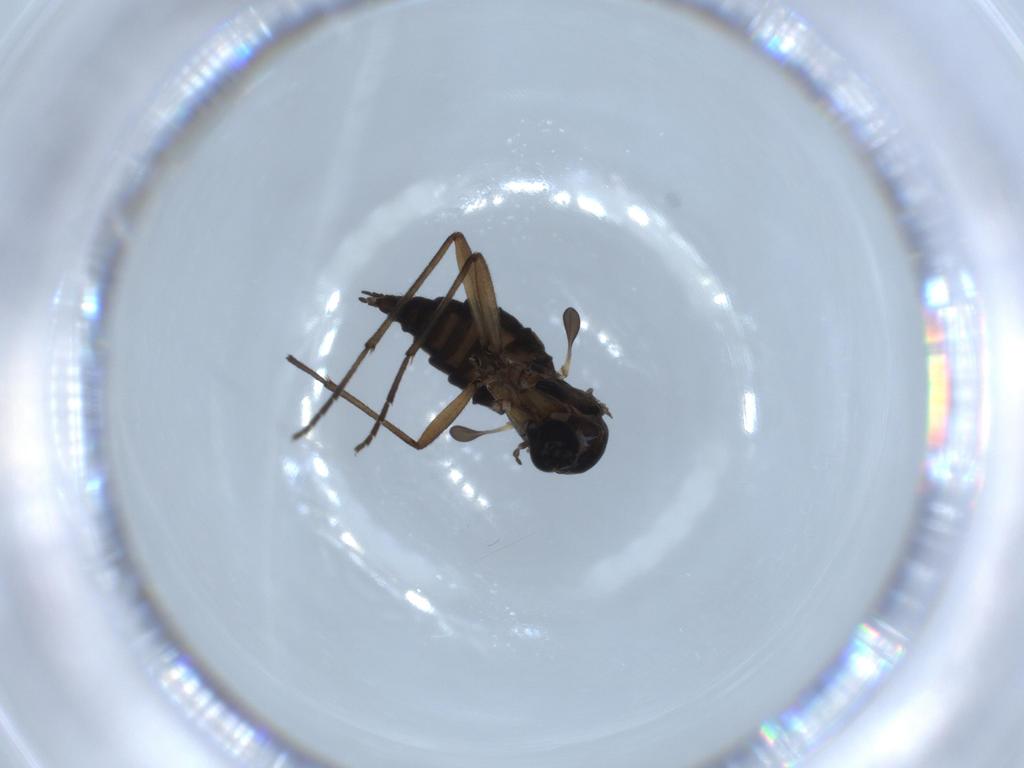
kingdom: Animalia
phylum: Arthropoda
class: Insecta
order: Diptera
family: Sciaridae
